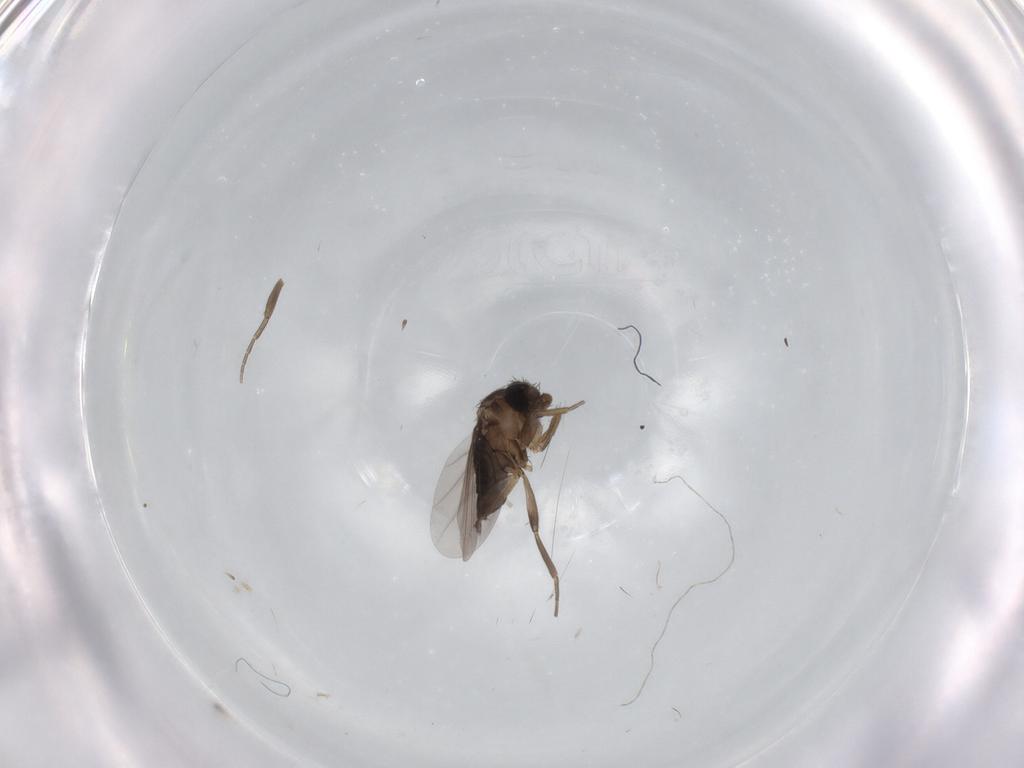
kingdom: Animalia
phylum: Arthropoda
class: Insecta
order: Diptera
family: Phoridae
